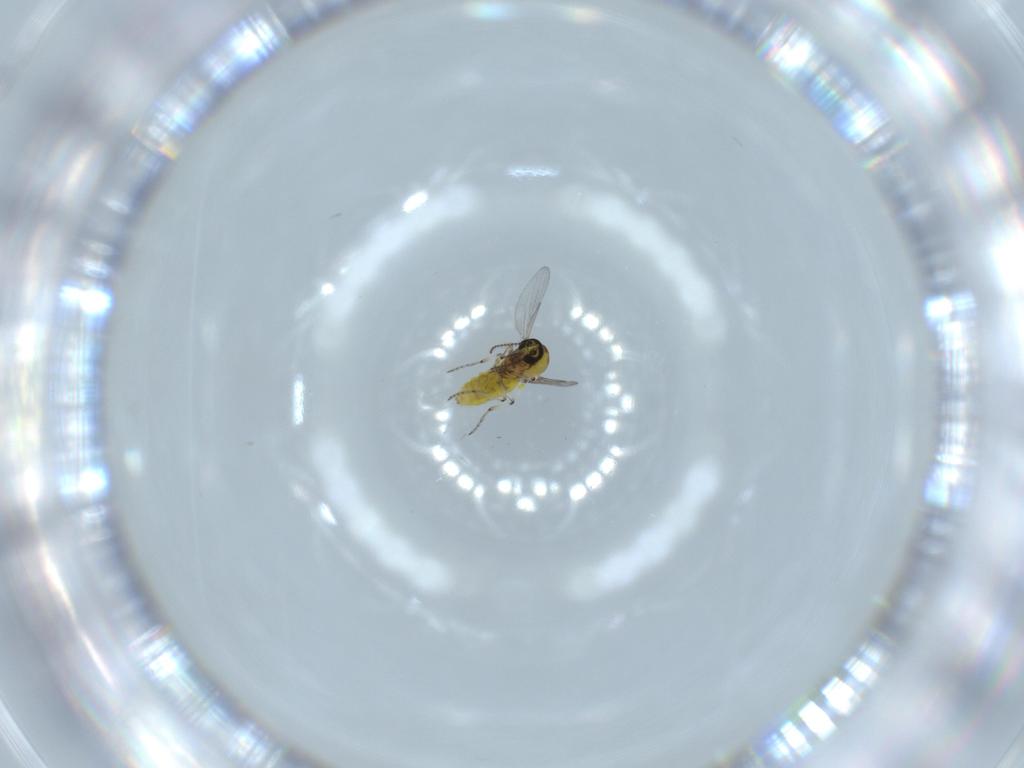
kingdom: Animalia
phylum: Arthropoda
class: Insecta
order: Diptera
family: Ceratopogonidae
